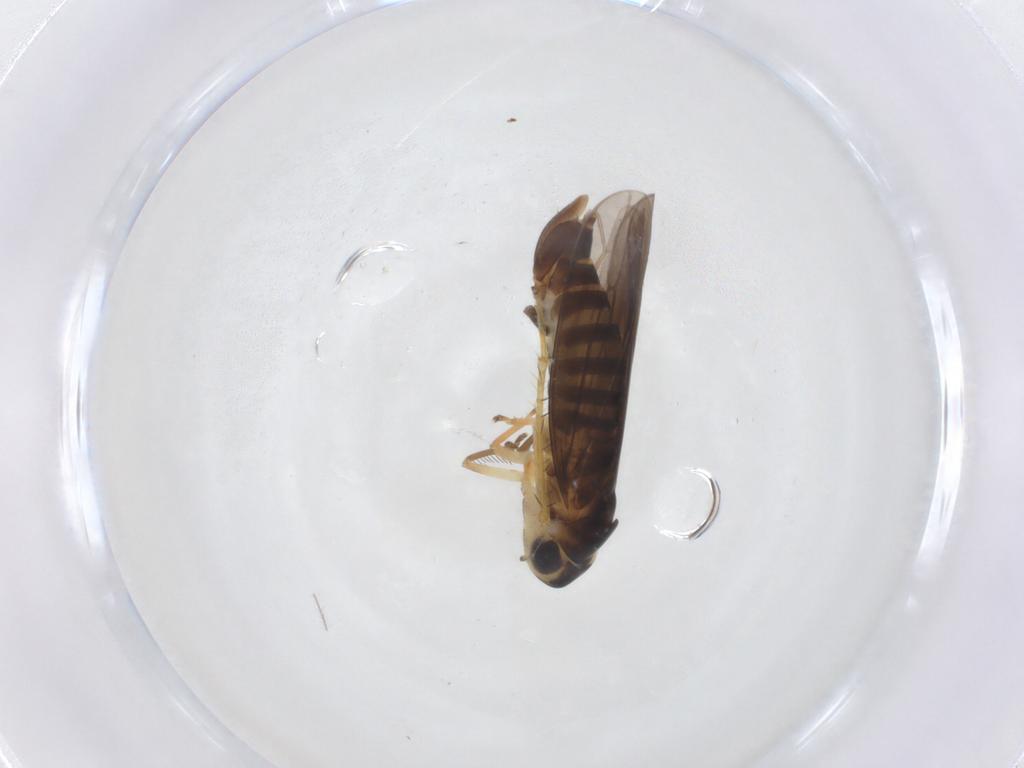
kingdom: Animalia
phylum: Arthropoda
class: Insecta
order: Hemiptera
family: Cicadellidae
